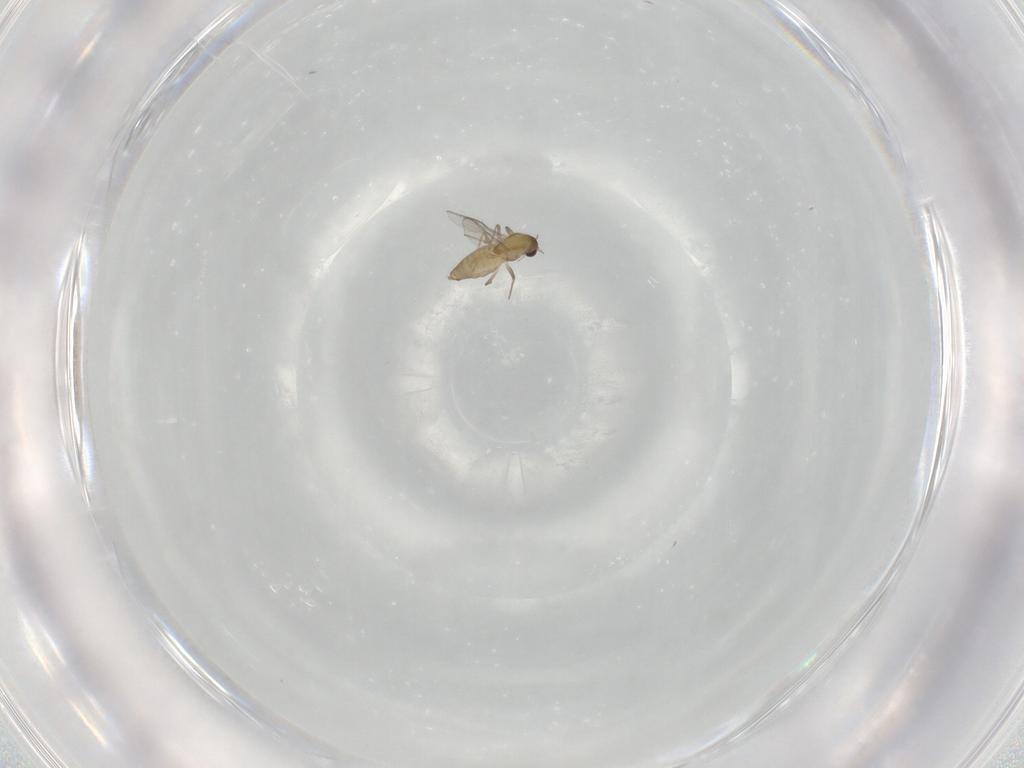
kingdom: Animalia
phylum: Arthropoda
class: Insecta
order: Diptera
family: Chironomidae
